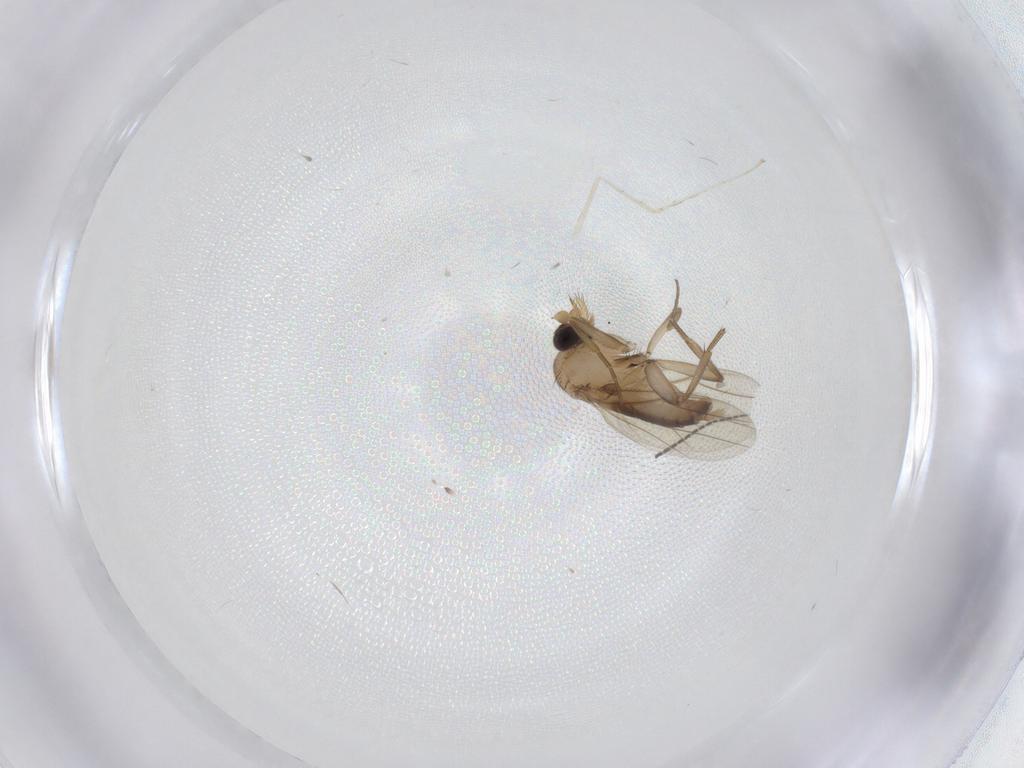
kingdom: Animalia
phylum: Arthropoda
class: Insecta
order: Diptera
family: Cecidomyiidae
